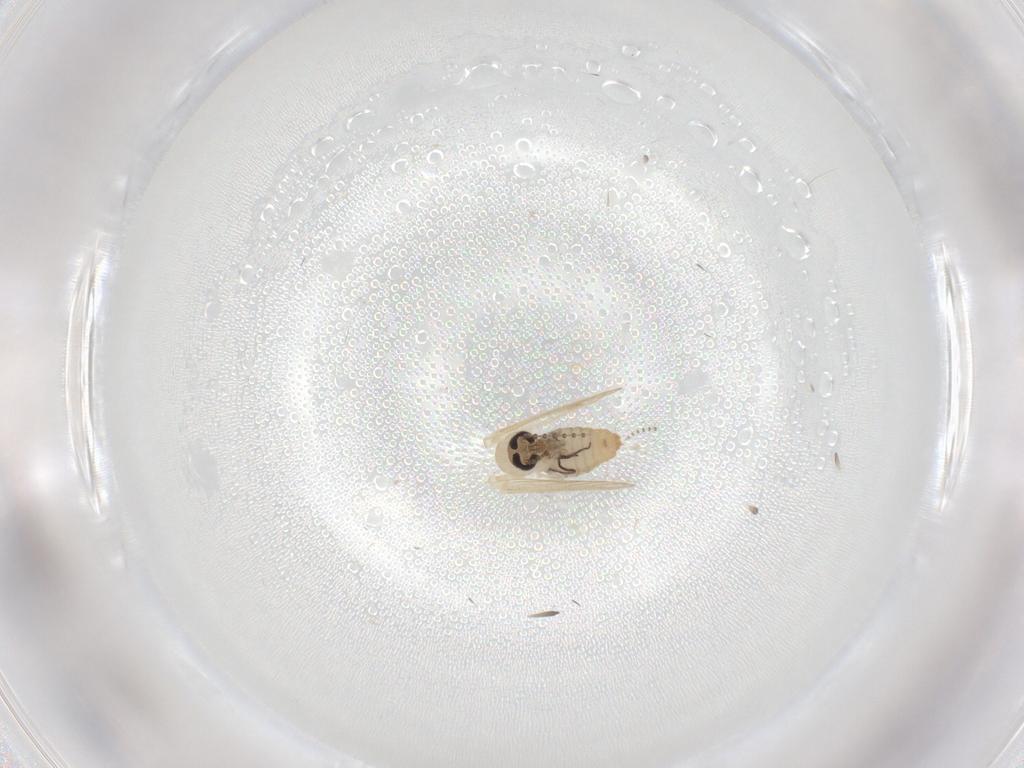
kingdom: Animalia
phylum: Arthropoda
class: Insecta
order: Diptera
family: Psychodidae
